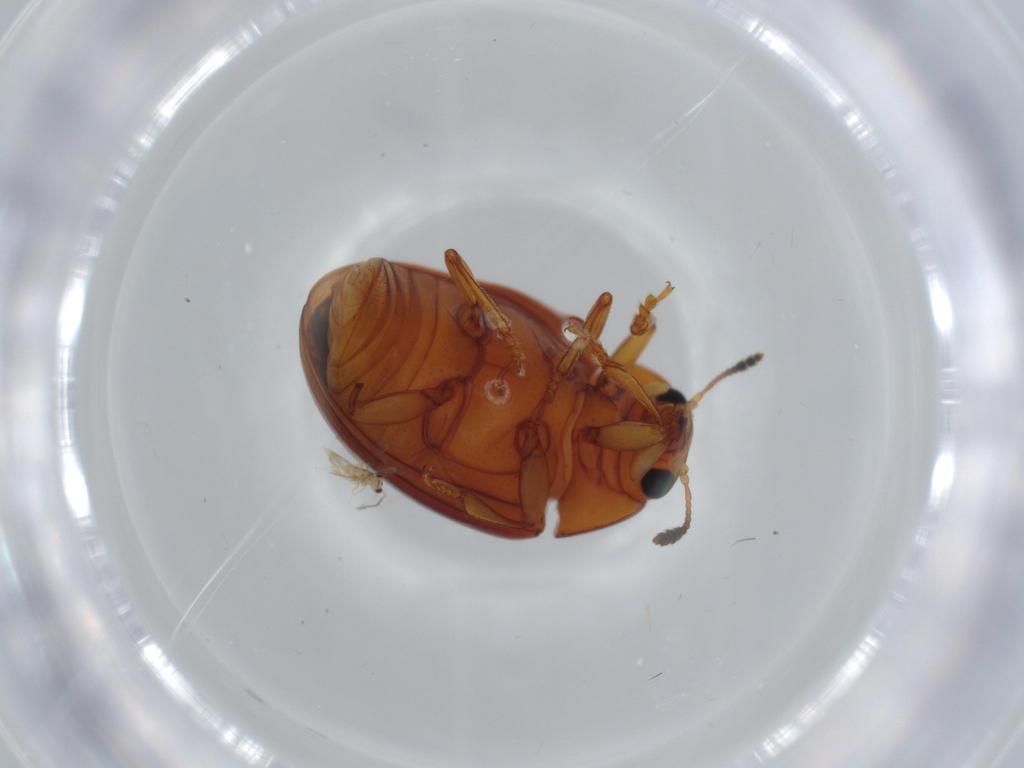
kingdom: Animalia
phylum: Arthropoda
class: Insecta
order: Coleoptera
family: Erotylidae
